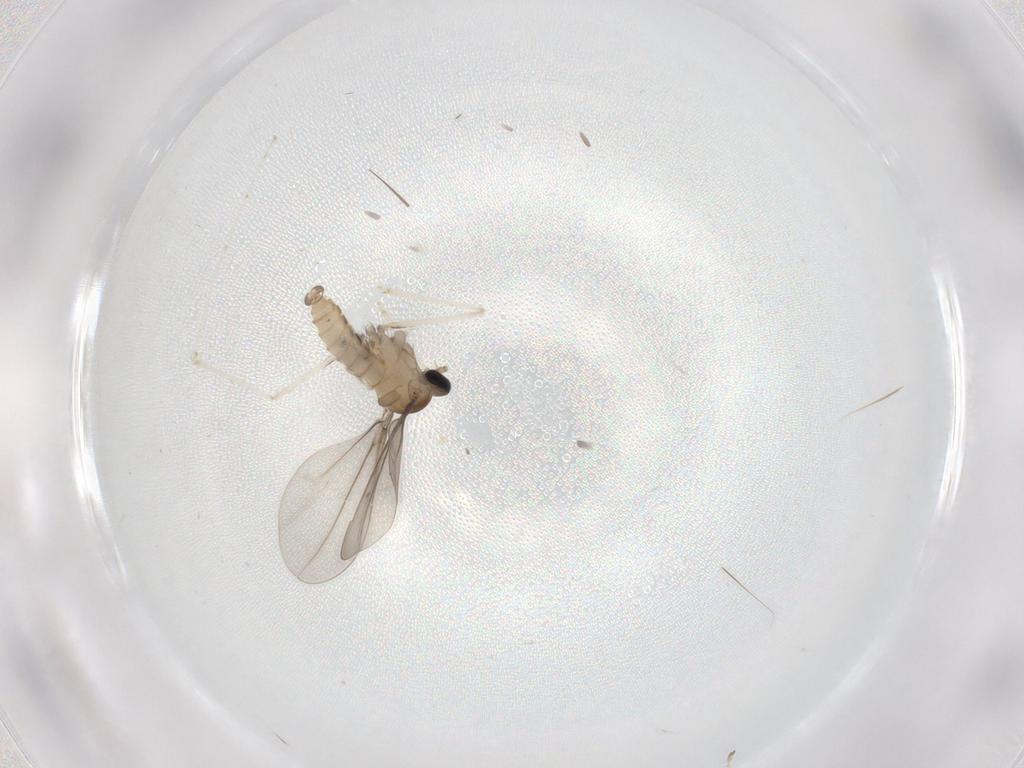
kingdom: Animalia
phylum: Arthropoda
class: Insecta
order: Diptera
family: Cecidomyiidae
